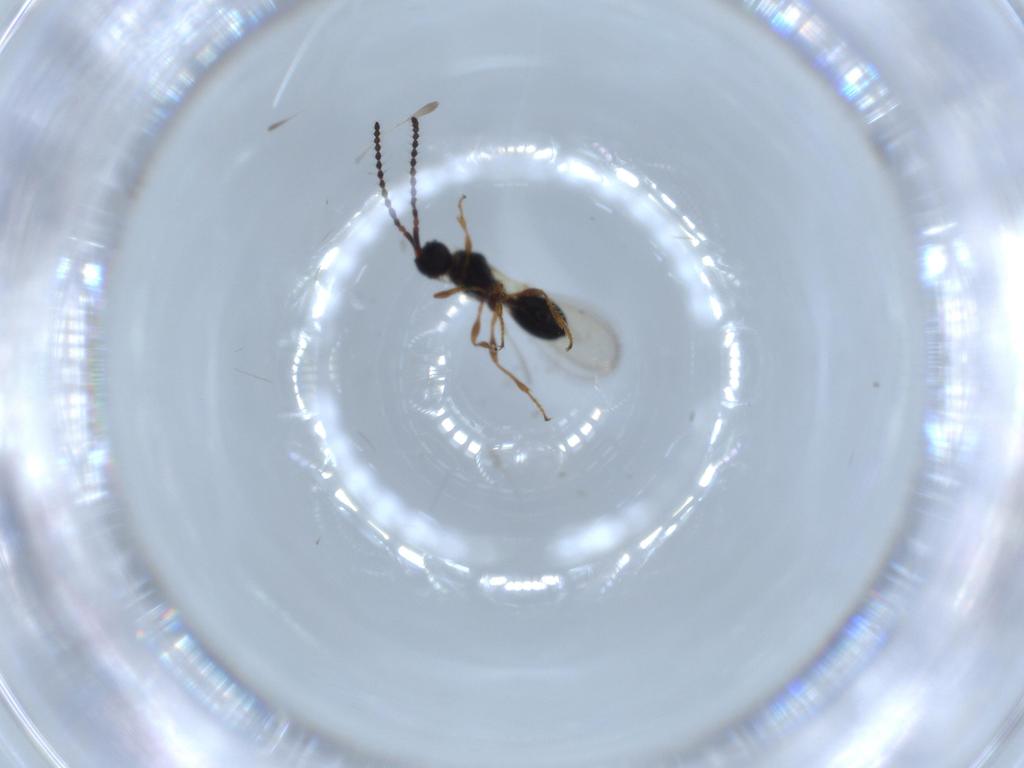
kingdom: Animalia
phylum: Arthropoda
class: Insecta
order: Hymenoptera
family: Diapriidae
